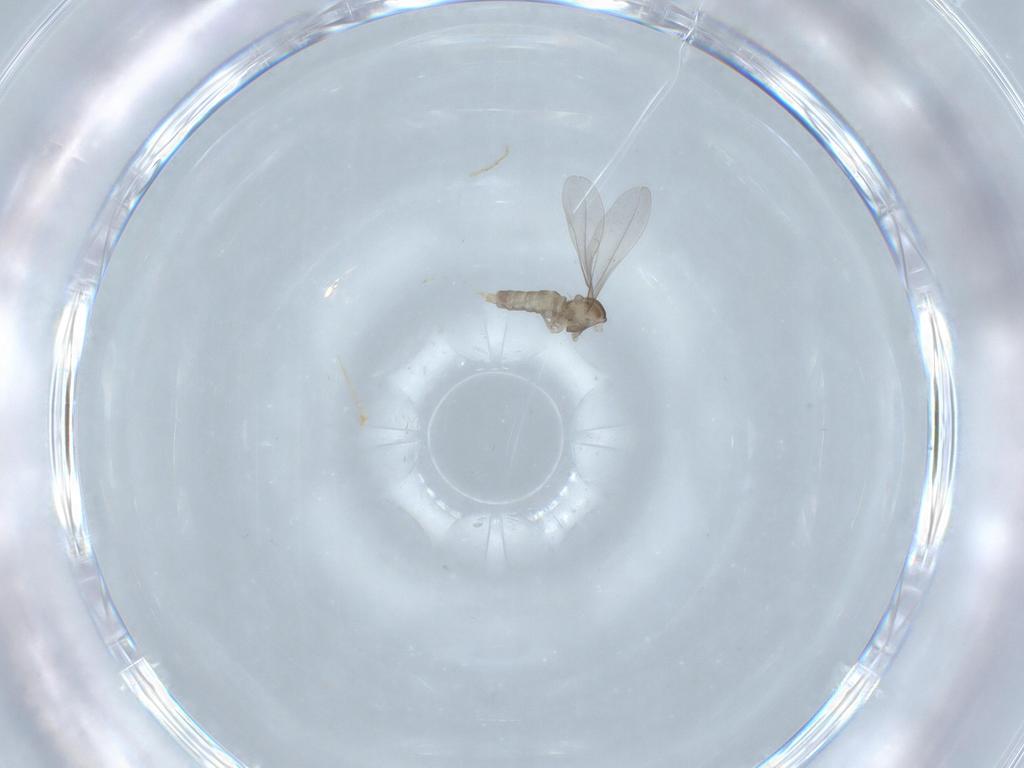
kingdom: Animalia
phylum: Arthropoda
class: Insecta
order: Diptera
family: Cecidomyiidae
